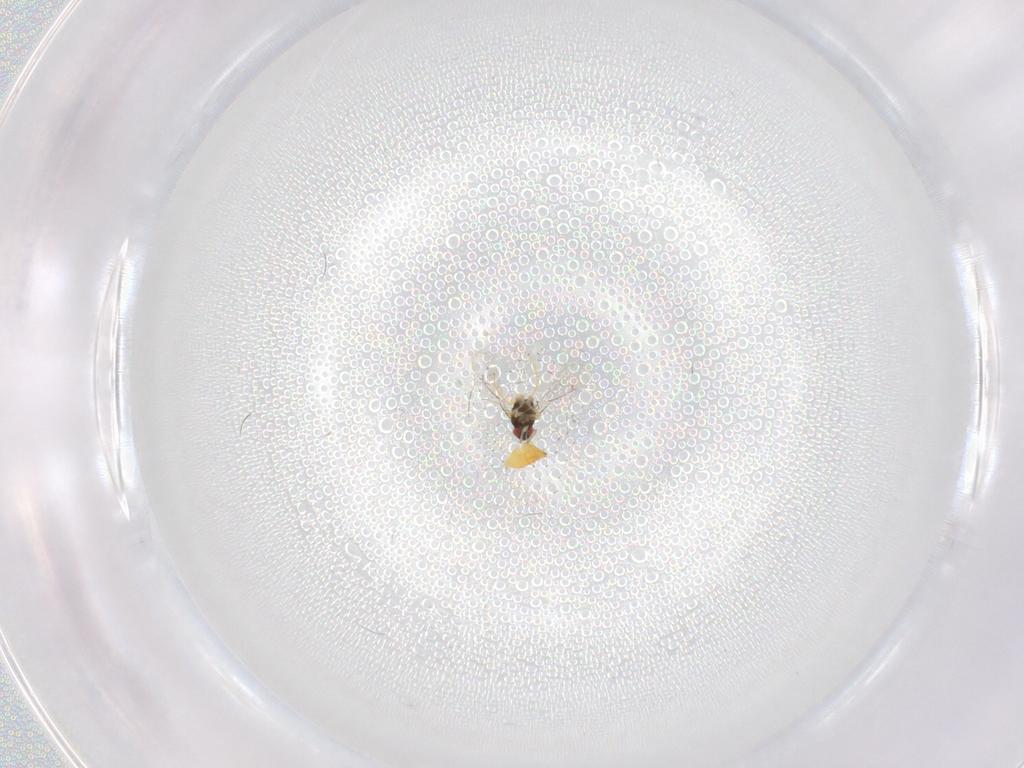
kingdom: Animalia
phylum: Arthropoda
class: Insecta
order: Hymenoptera
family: Eulophidae
